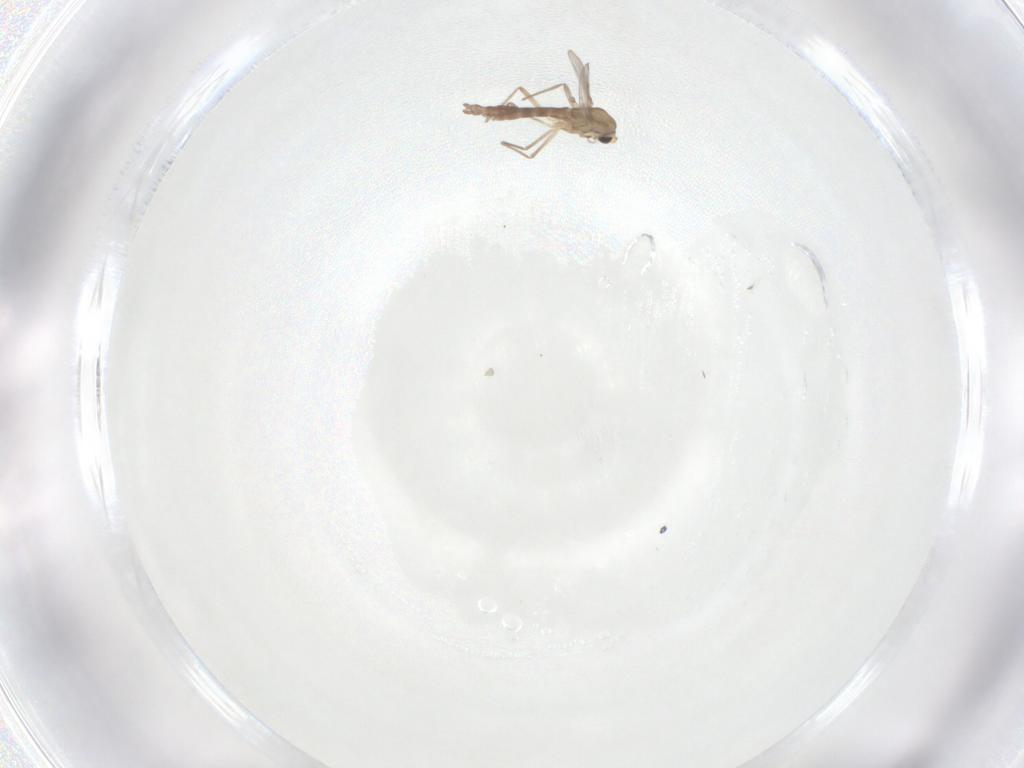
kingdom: Animalia
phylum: Arthropoda
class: Insecta
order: Diptera
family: Chironomidae
